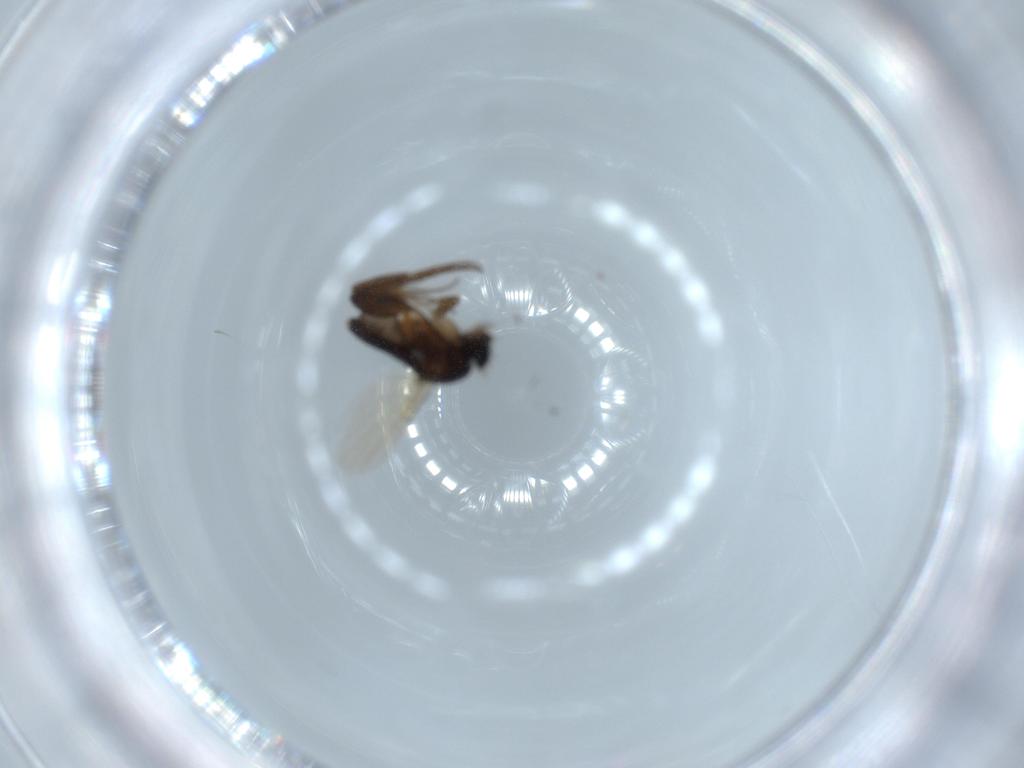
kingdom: Animalia
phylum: Arthropoda
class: Insecta
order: Diptera
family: Phoridae
